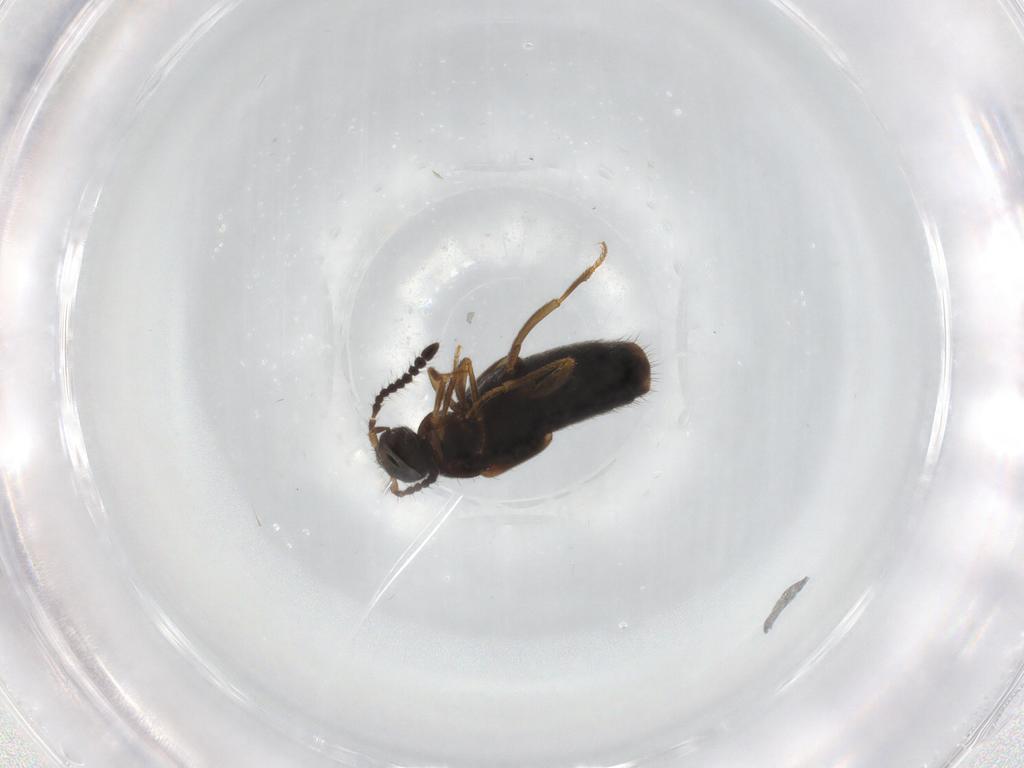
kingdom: Animalia
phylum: Arthropoda
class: Insecta
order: Coleoptera
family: Staphylinidae
